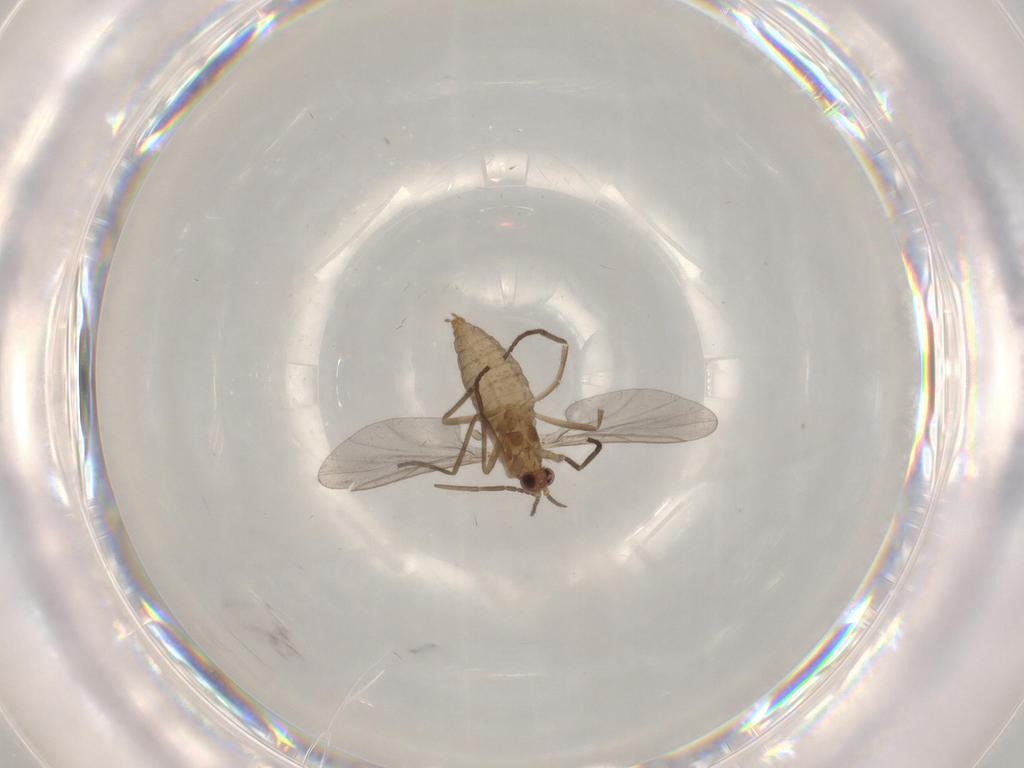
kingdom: Animalia
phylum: Arthropoda
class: Insecta
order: Diptera
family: Cecidomyiidae
